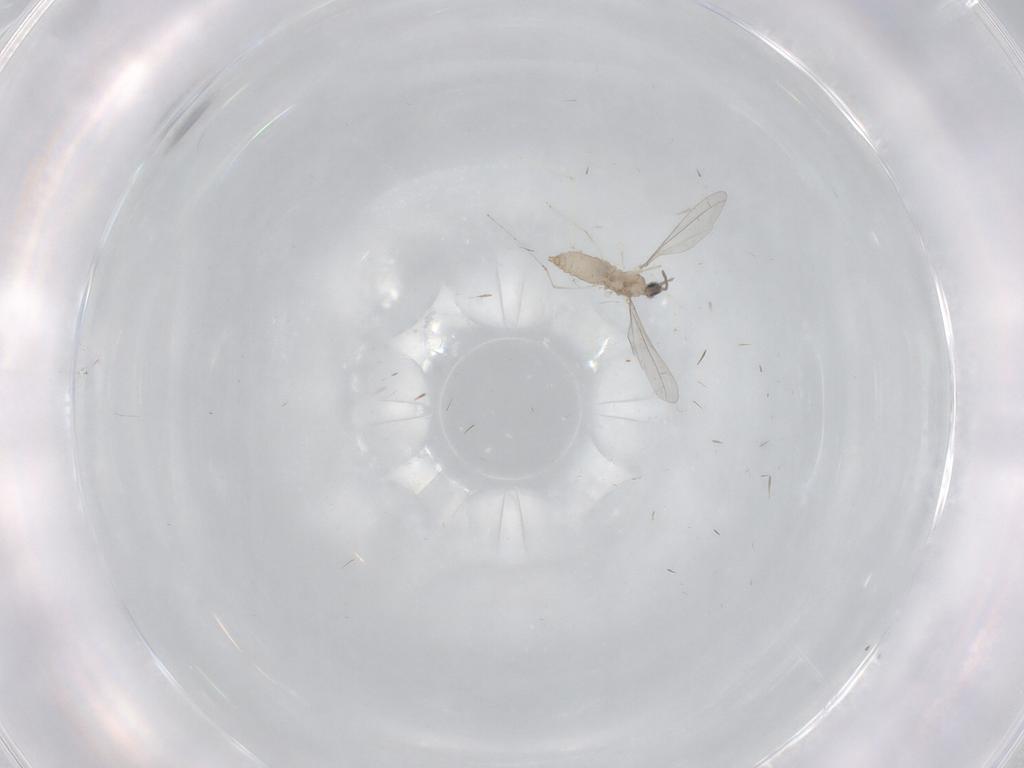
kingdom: Animalia
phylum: Arthropoda
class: Insecta
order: Diptera
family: Cecidomyiidae
